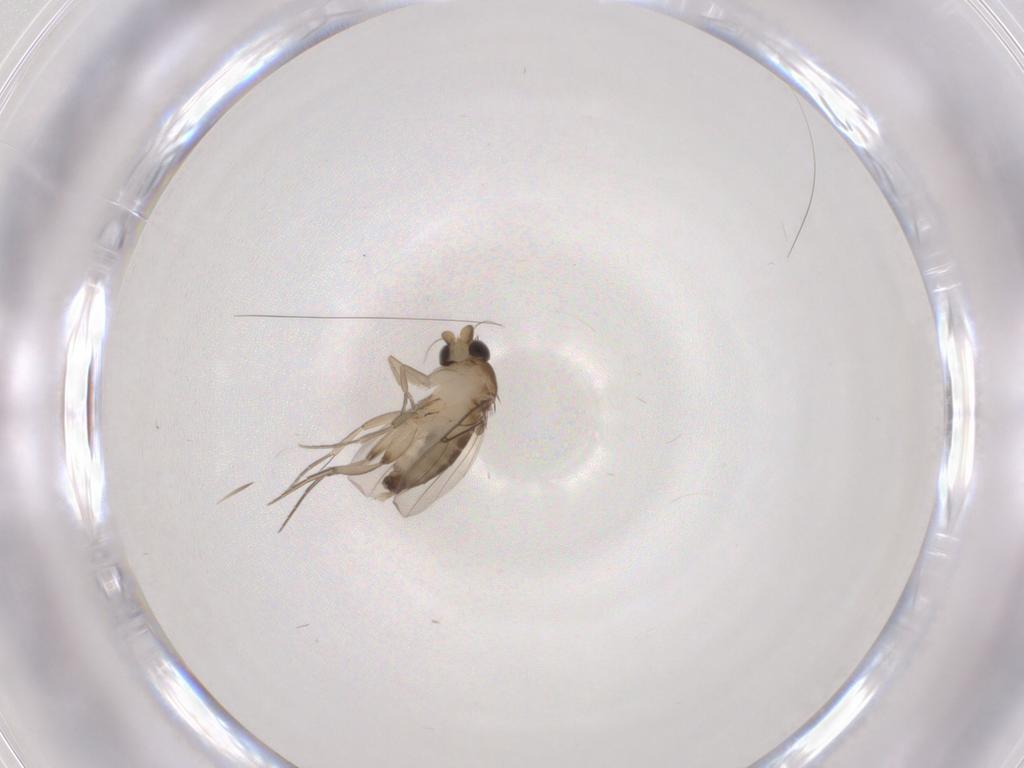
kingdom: Animalia
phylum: Arthropoda
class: Insecta
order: Diptera
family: Phoridae
